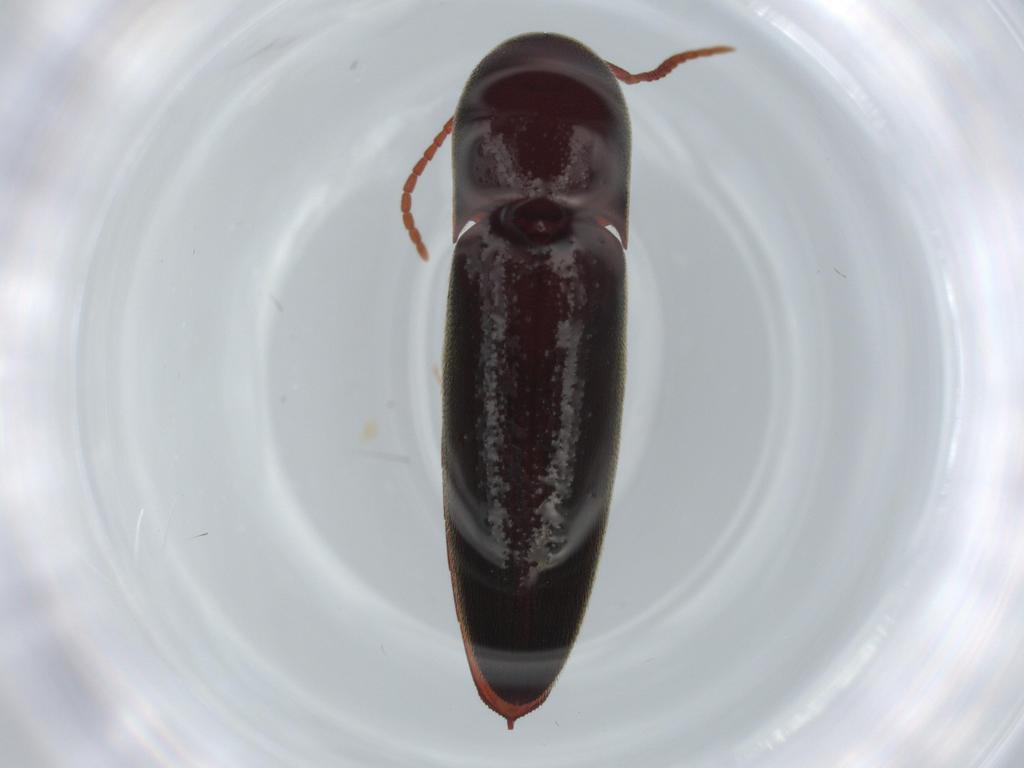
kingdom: Animalia
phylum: Arthropoda
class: Insecta
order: Coleoptera
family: Eucnemidae
